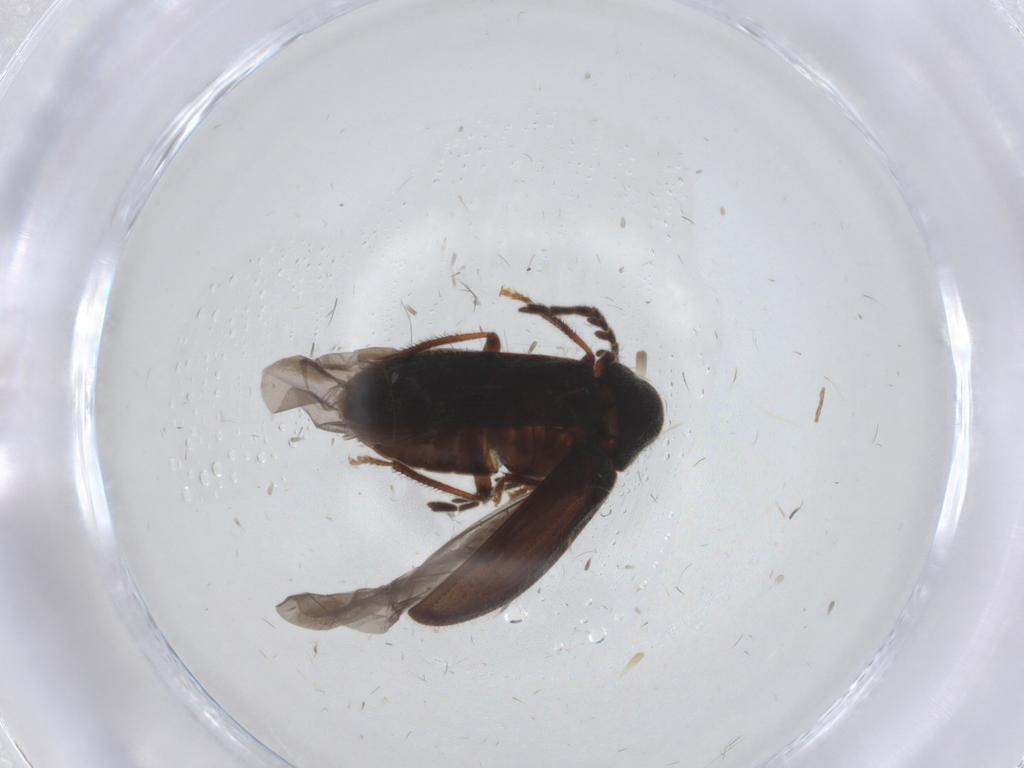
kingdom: Animalia
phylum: Arthropoda
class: Insecta
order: Coleoptera
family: Ptilodactylidae
